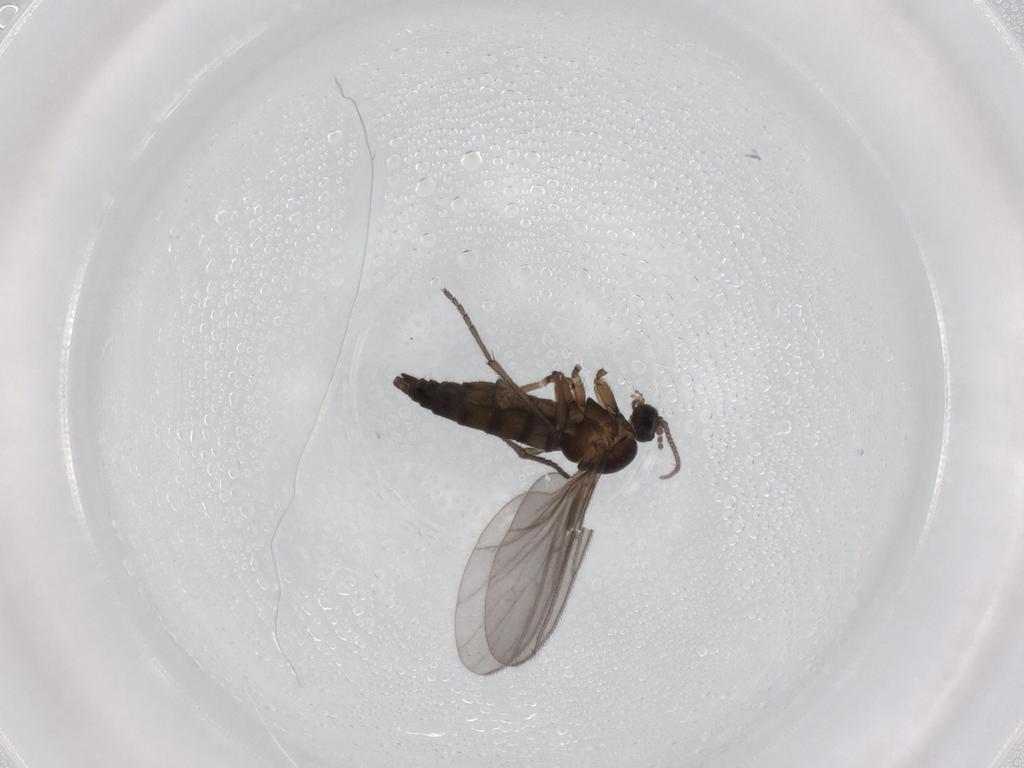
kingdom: Animalia
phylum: Arthropoda
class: Insecta
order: Diptera
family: Sciaridae
